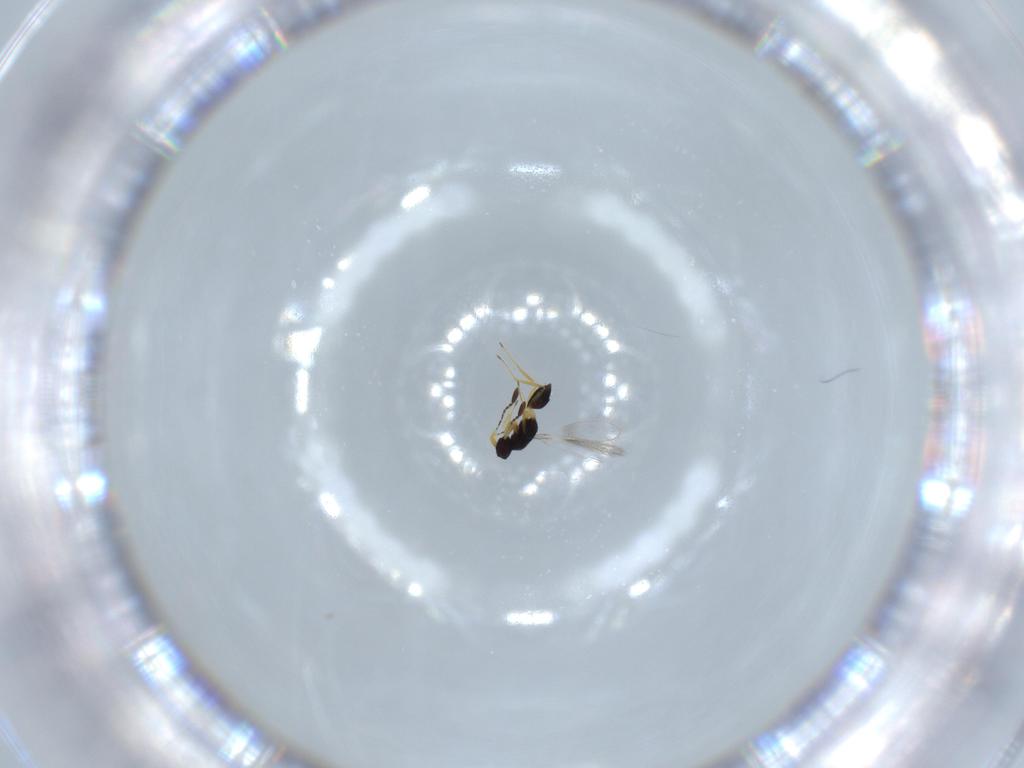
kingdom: Animalia
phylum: Arthropoda
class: Insecta
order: Hymenoptera
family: Mymaridae
